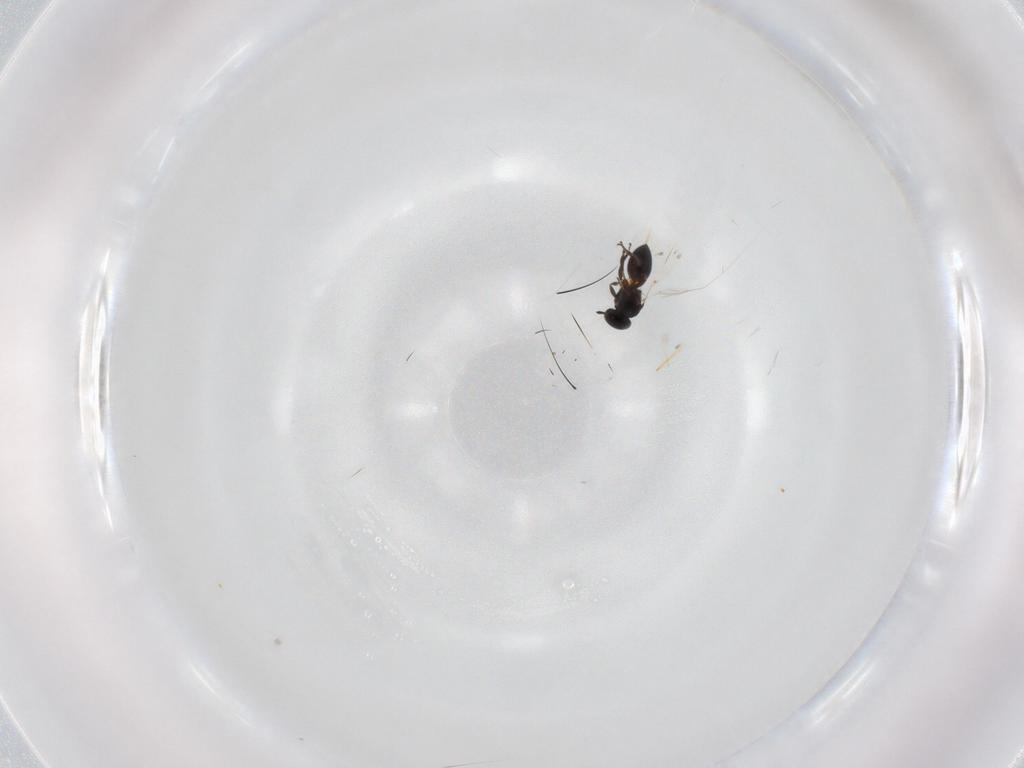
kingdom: Animalia
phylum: Arthropoda
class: Insecta
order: Hymenoptera
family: Platygastridae
